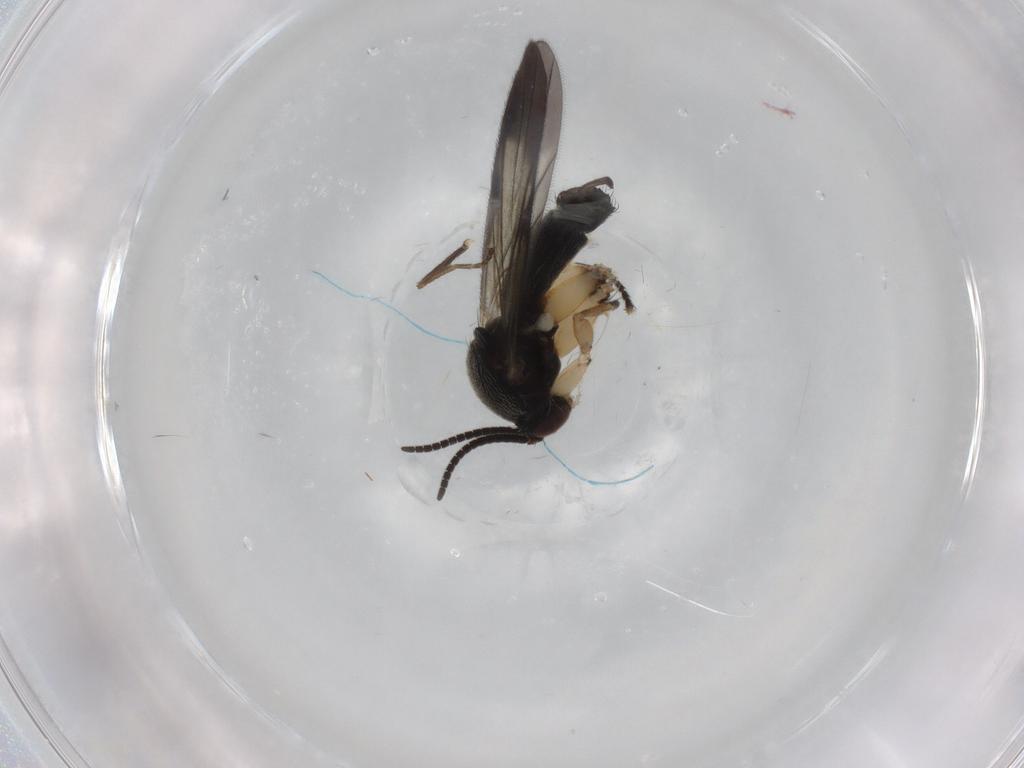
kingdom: Animalia
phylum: Arthropoda
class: Insecta
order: Diptera
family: Mycetophilidae
